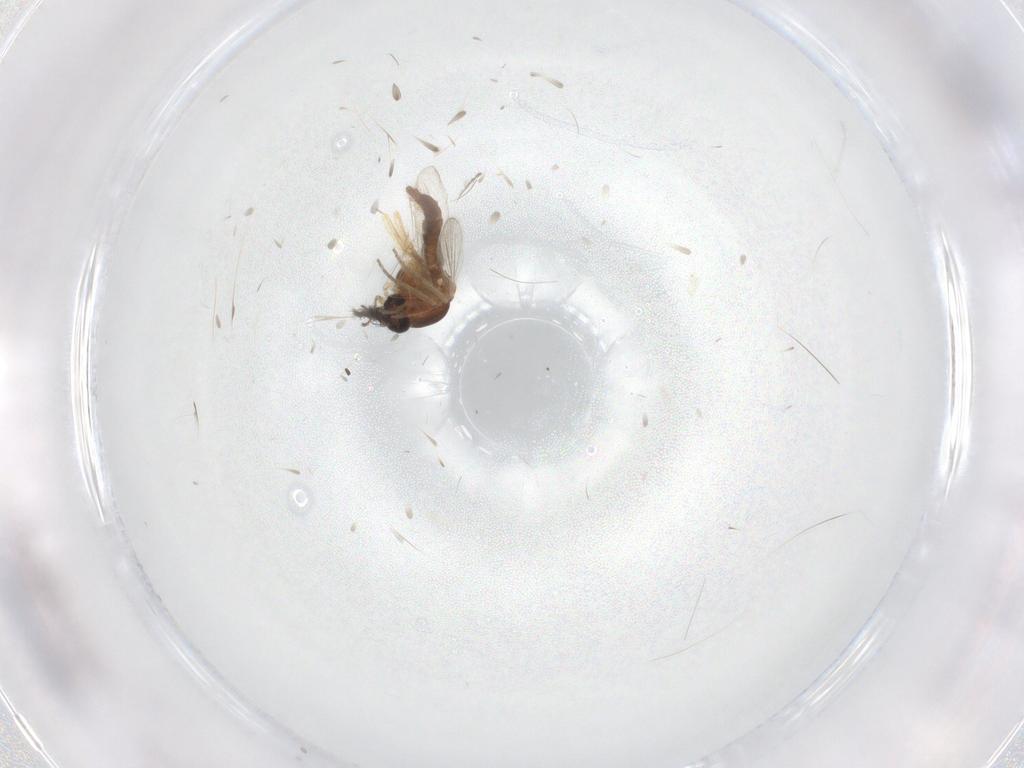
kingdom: Animalia
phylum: Arthropoda
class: Insecta
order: Diptera
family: Ceratopogonidae
